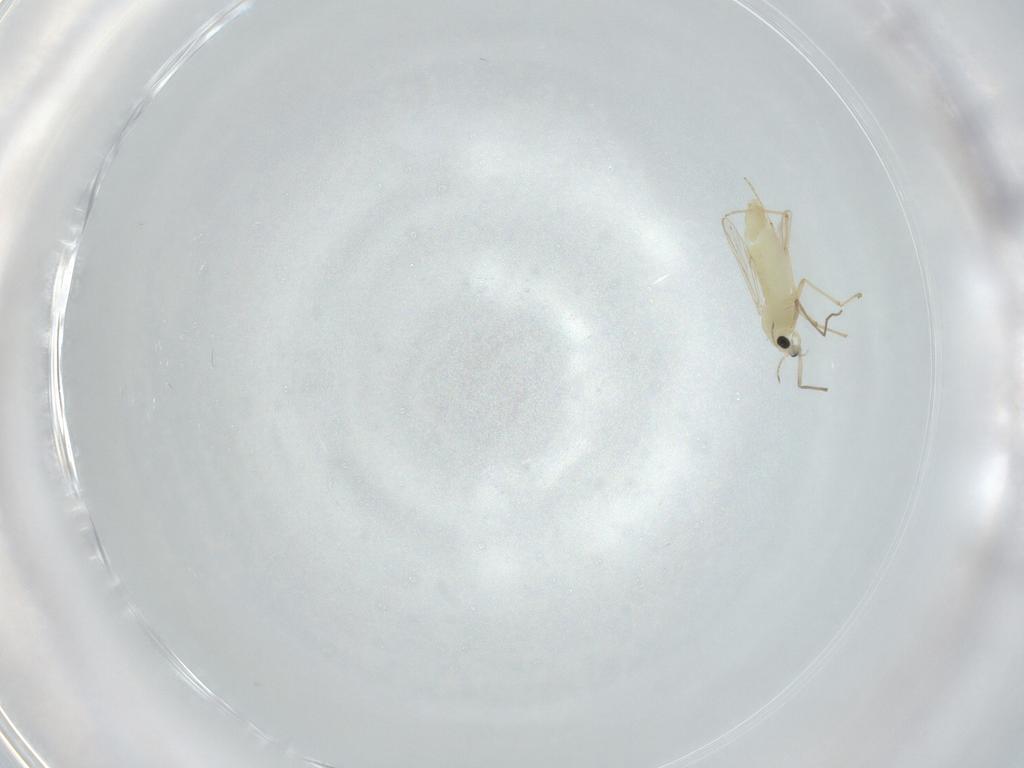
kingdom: Animalia
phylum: Arthropoda
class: Insecta
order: Diptera
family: Chironomidae
